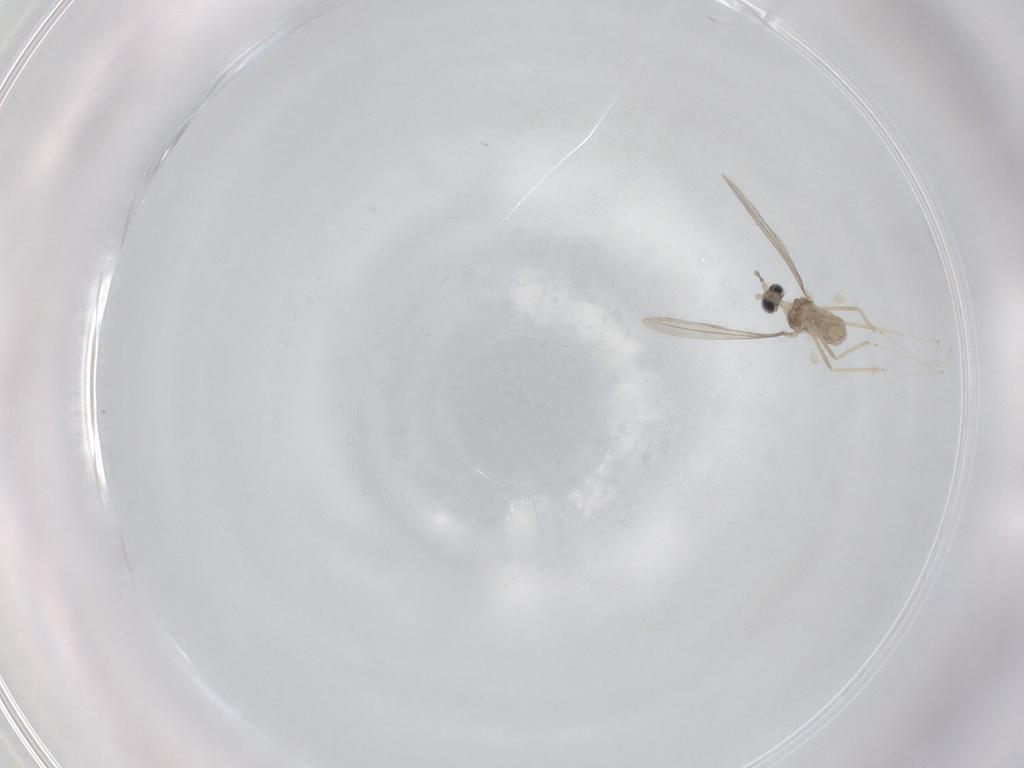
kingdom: Animalia
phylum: Arthropoda
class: Insecta
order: Diptera
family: Cecidomyiidae
